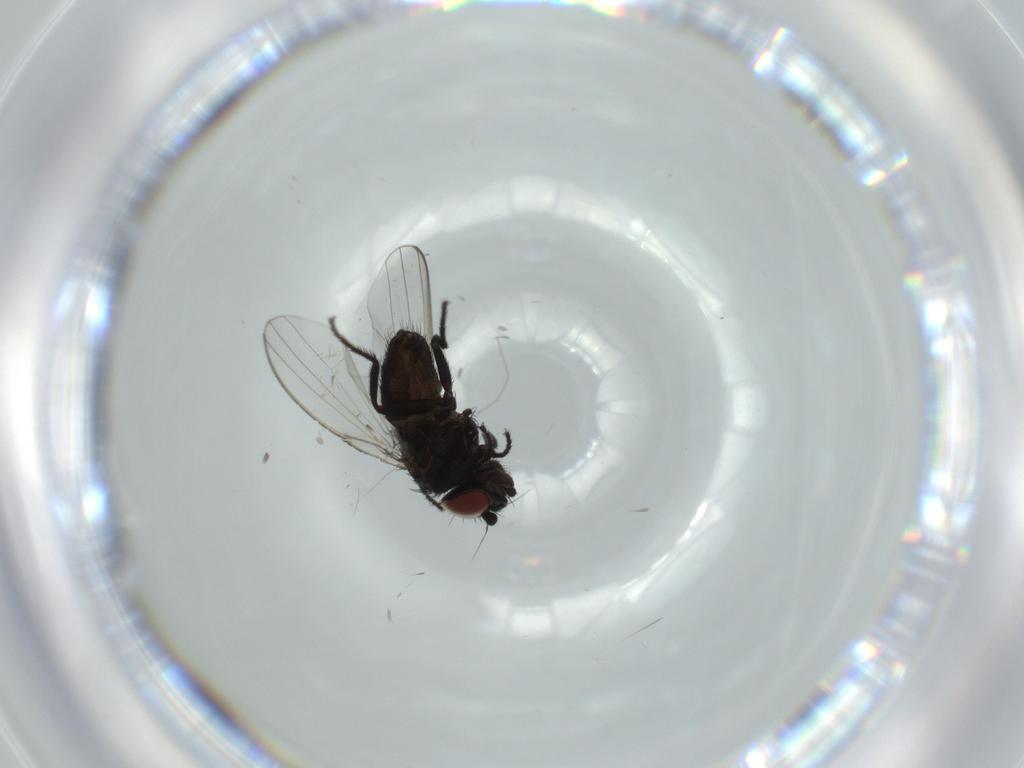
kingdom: Animalia
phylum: Arthropoda
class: Insecta
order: Diptera
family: Milichiidae
